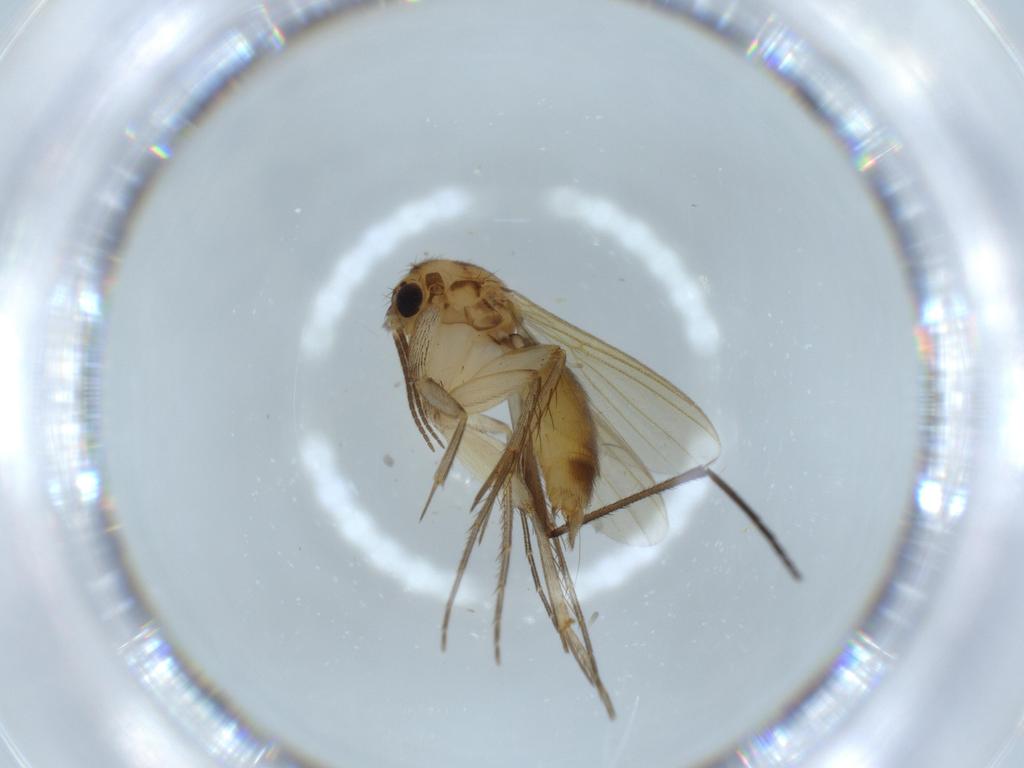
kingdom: Animalia
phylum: Arthropoda
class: Insecta
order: Diptera
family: Mycetophilidae
